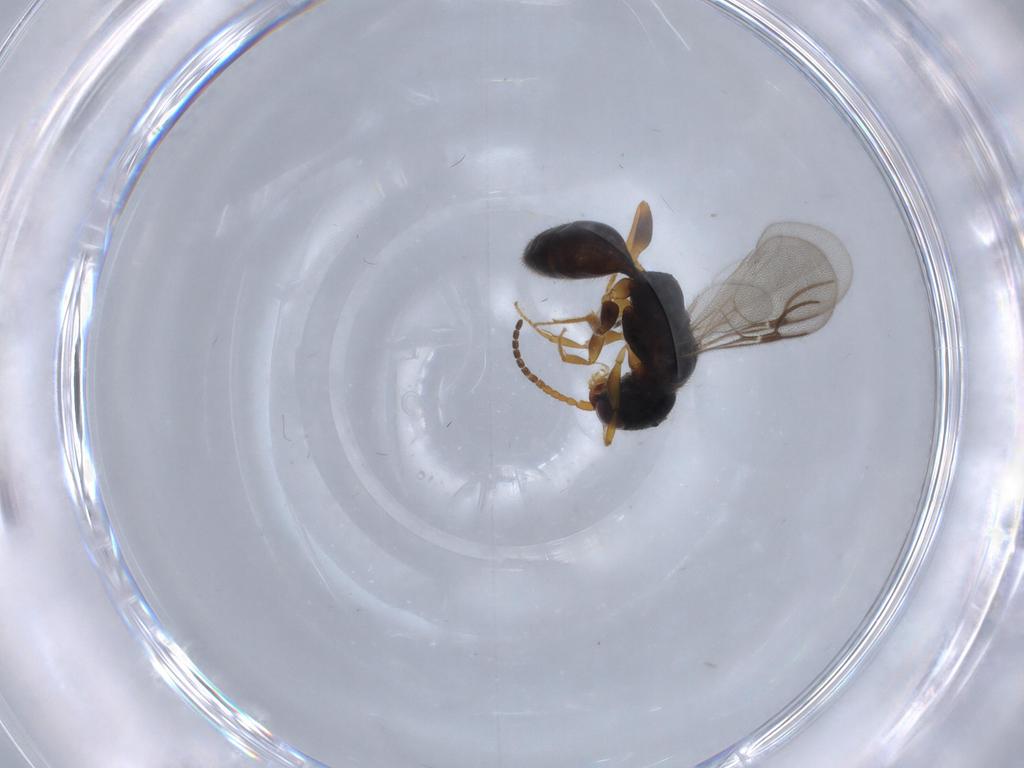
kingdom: Animalia
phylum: Arthropoda
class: Insecta
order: Hymenoptera
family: Bethylidae
